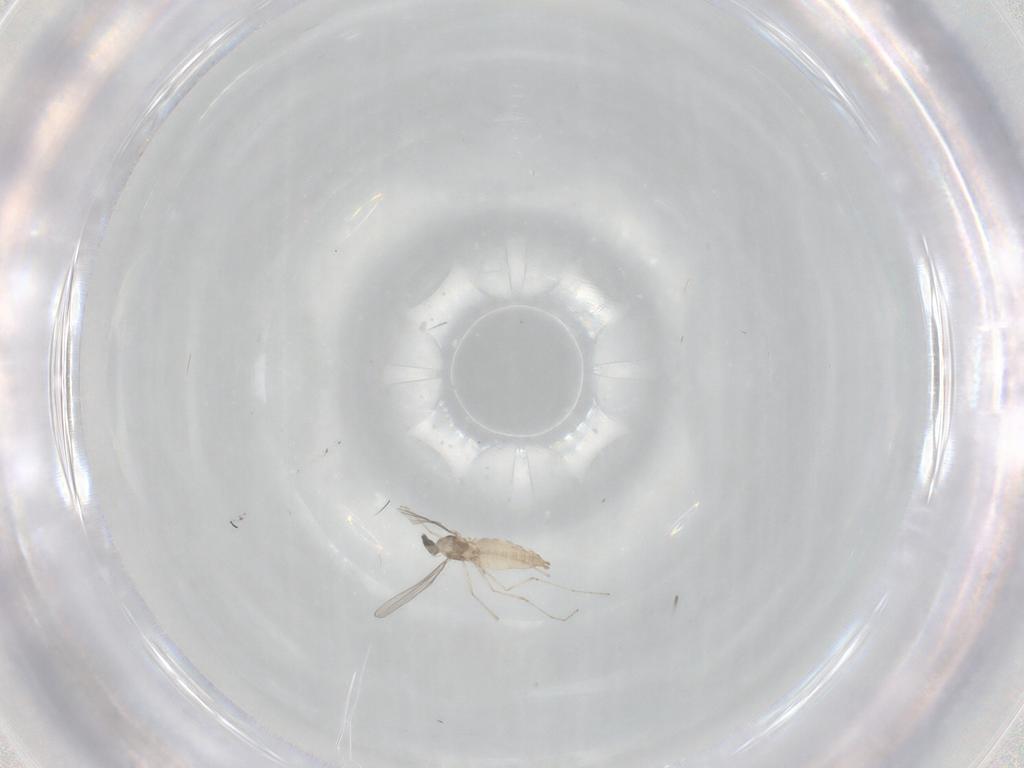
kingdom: Animalia
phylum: Arthropoda
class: Insecta
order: Diptera
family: Cecidomyiidae
